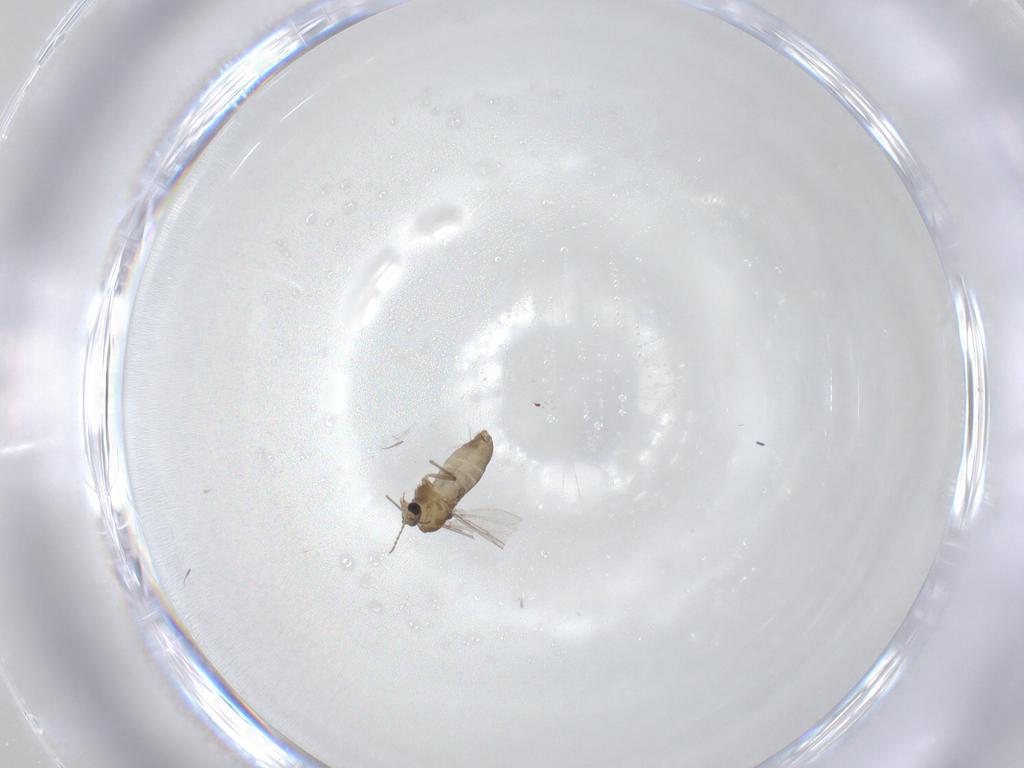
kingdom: Animalia
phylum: Arthropoda
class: Insecta
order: Diptera
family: Chironomidae
